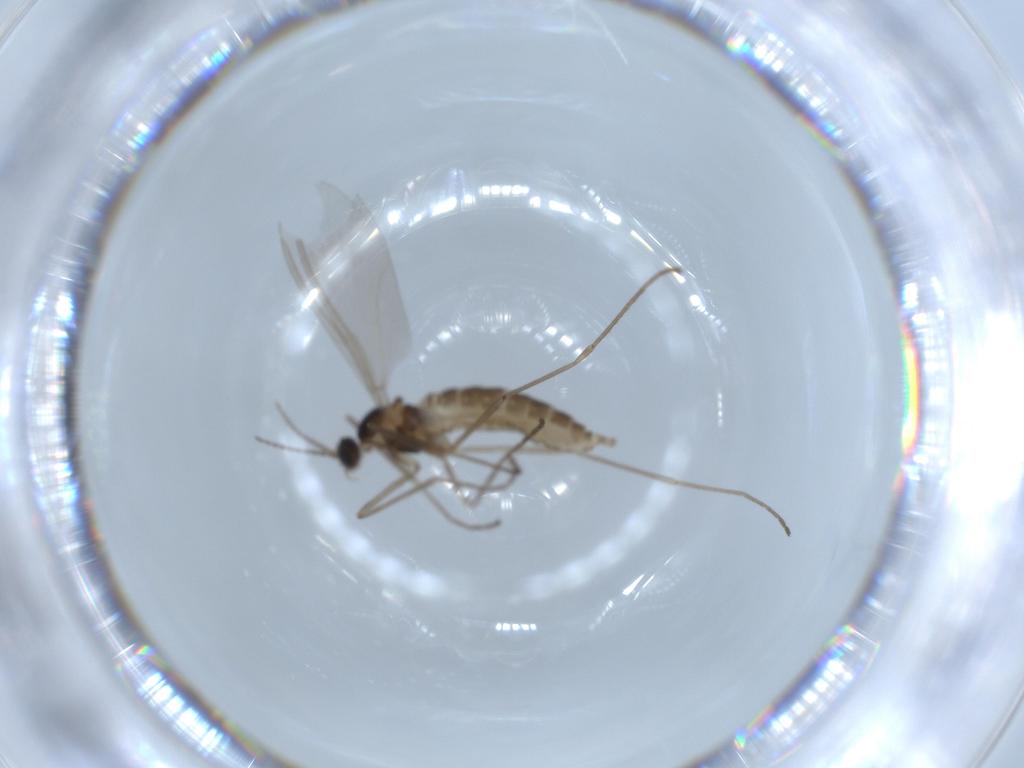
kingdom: Animalia
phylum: Arthropoda
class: Insecta
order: Diptera
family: Cecidomyiidae
